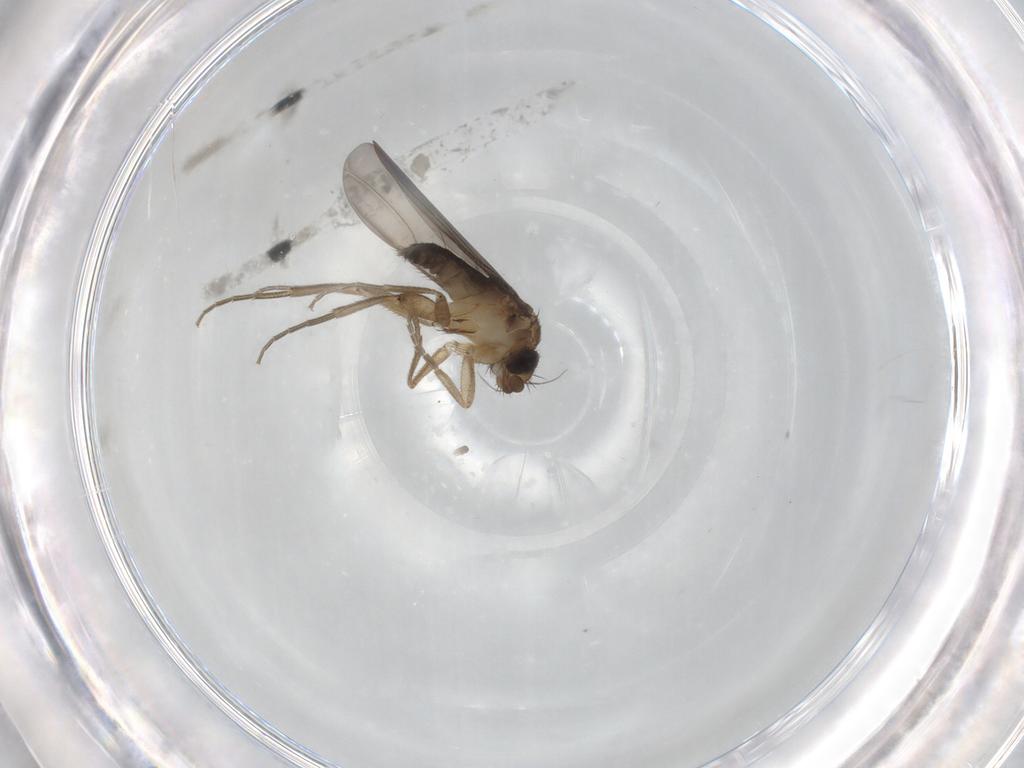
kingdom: Animalia
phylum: Arthropoda
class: Insecta
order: Diptera
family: Phoridae
